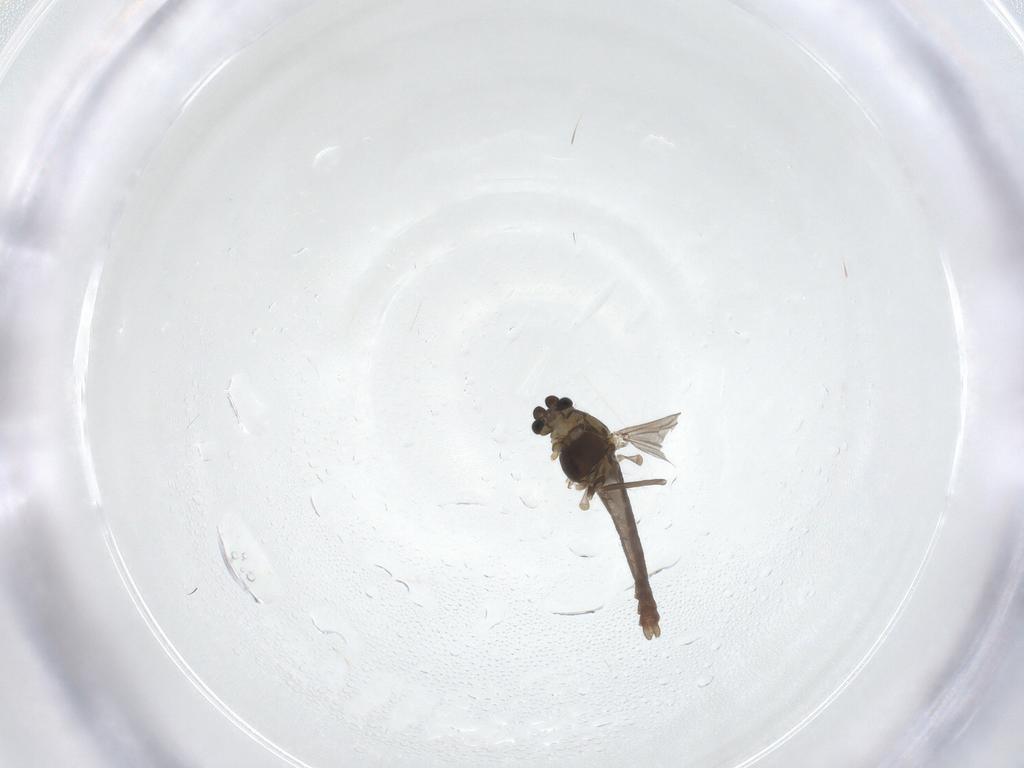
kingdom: Animalia
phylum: Arthropoda
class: Insecta
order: Diptera
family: Chironomidae
